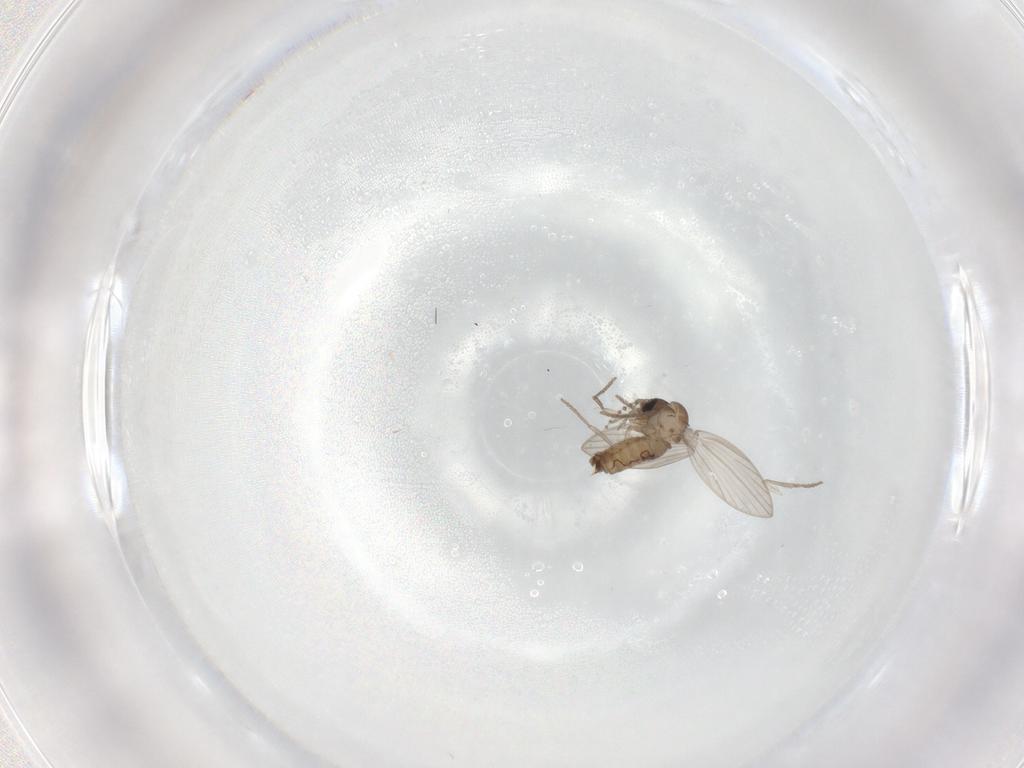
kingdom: Animalia
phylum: Arthropoda
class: Insecta
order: Diptera
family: Psychodidae
